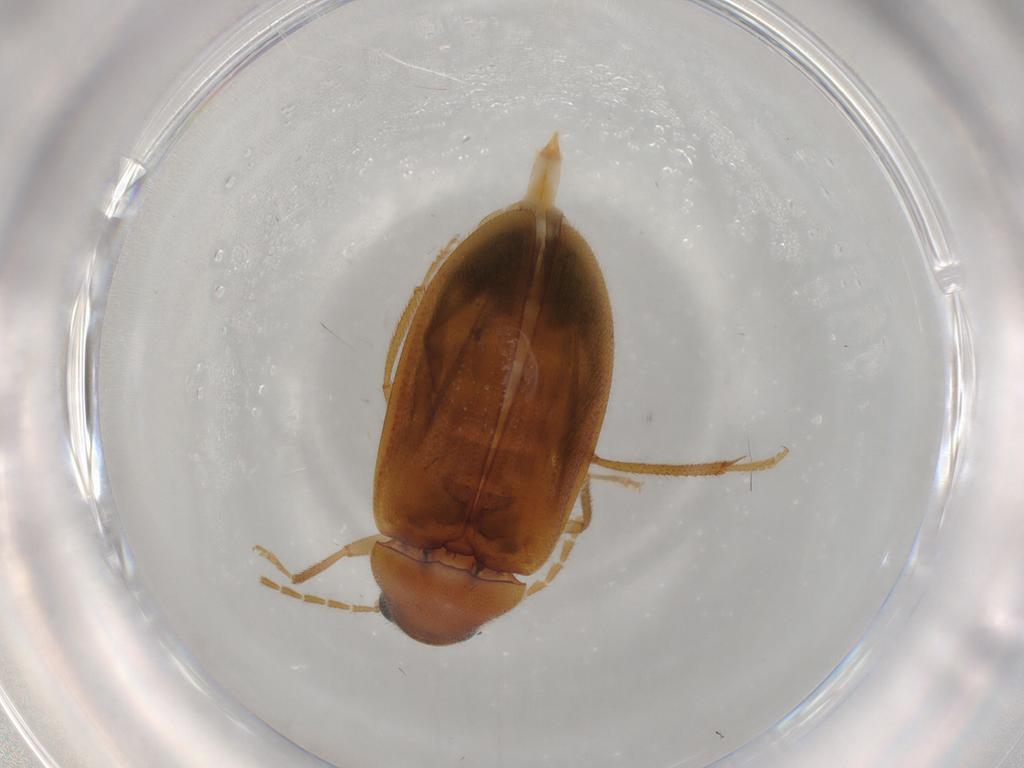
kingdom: Animalia
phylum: Arthropoda
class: Insecta
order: Coleoptera
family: Ptilodactylidae
